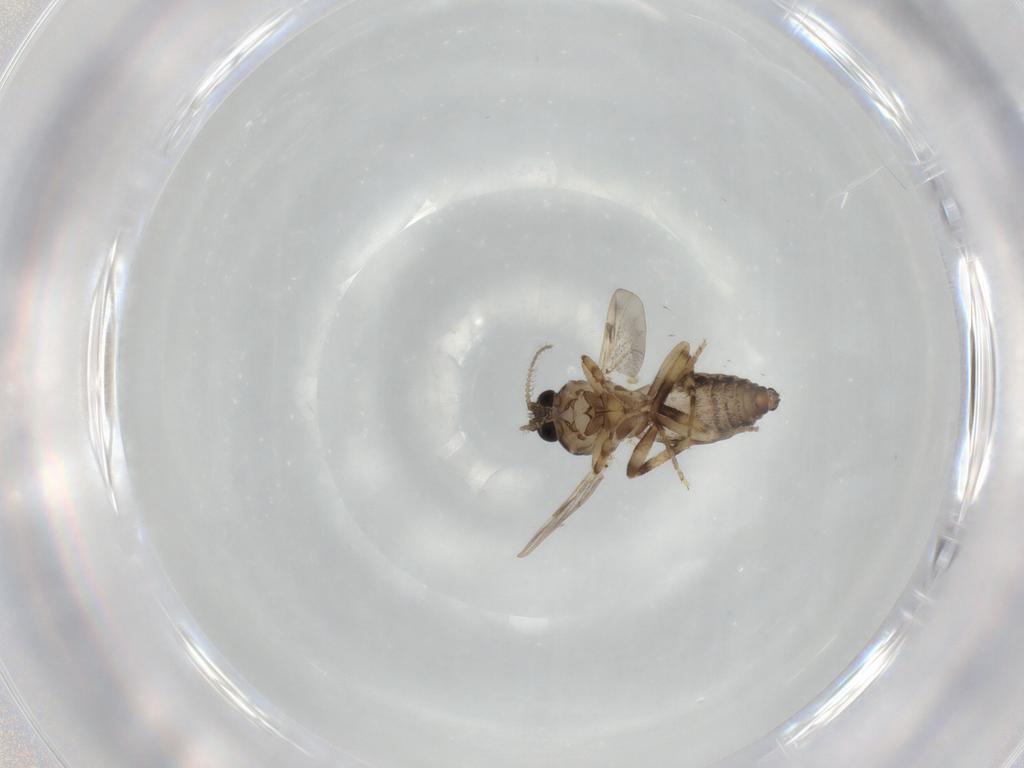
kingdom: Animalia
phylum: Arthropoda
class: Insecta
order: Diptera
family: Ceratopogonidae
